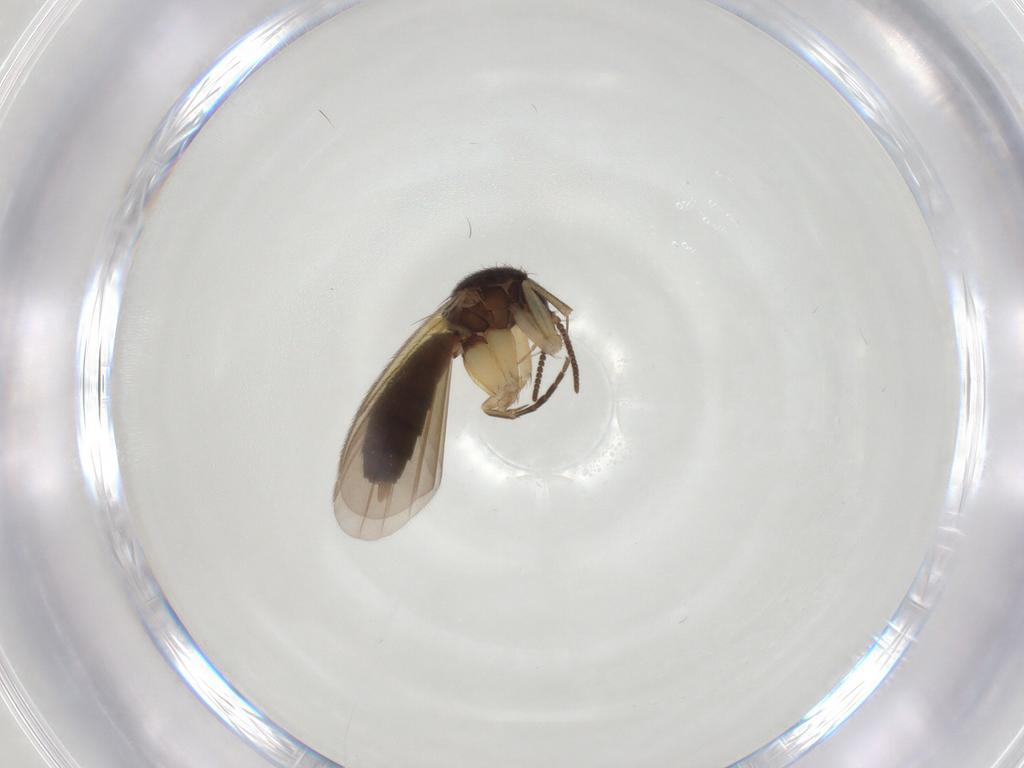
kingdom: Animalia
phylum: Arthropoda
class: Insecta
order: Diptera
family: Mycetophilidae
